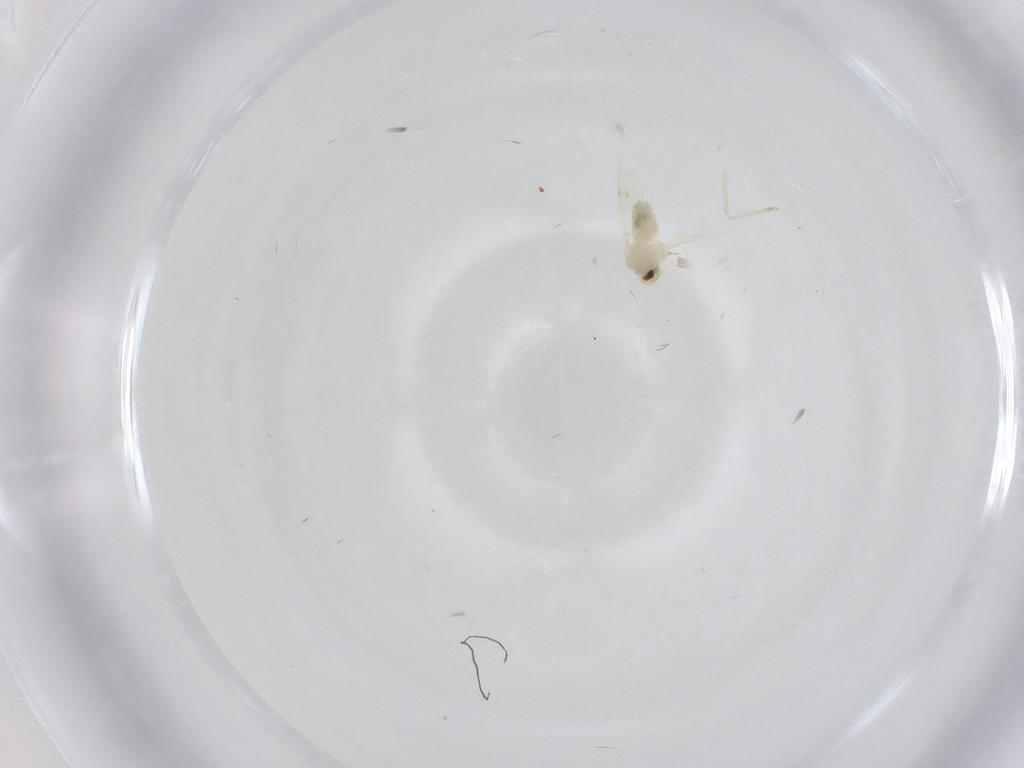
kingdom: Animalia
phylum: Arthropoda
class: Insecta
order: Hemiptera
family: Aleyrodidae
